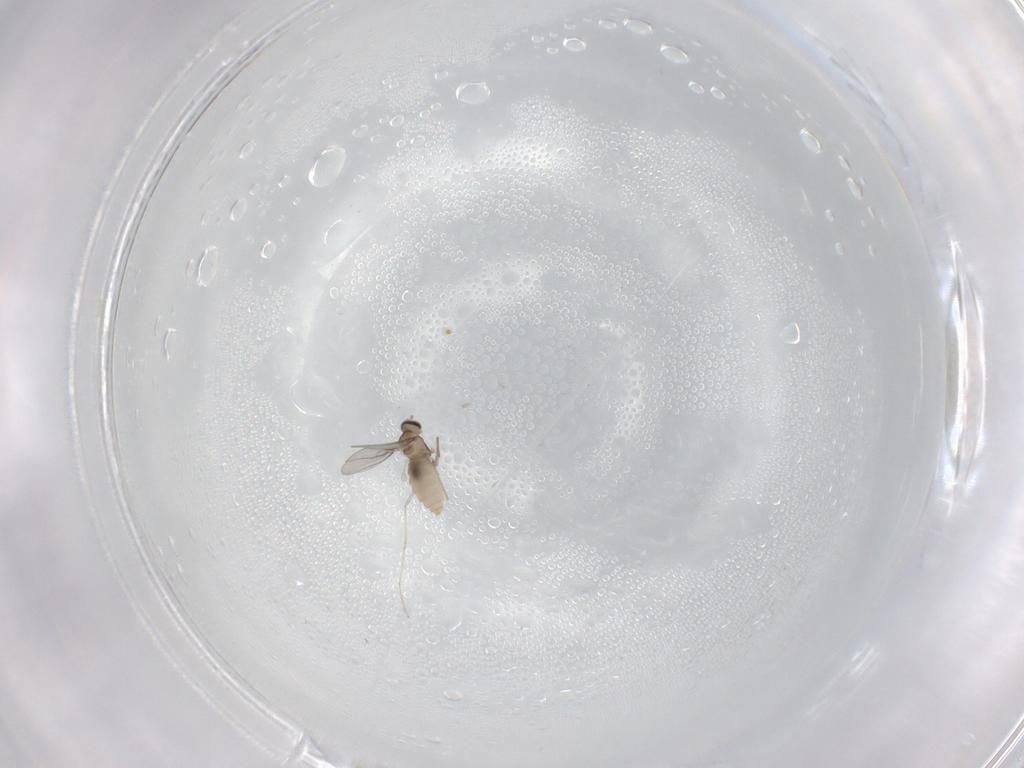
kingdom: Animalia
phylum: Arthropoda
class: Insecta
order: Diptera
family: Cecidomyiidae
